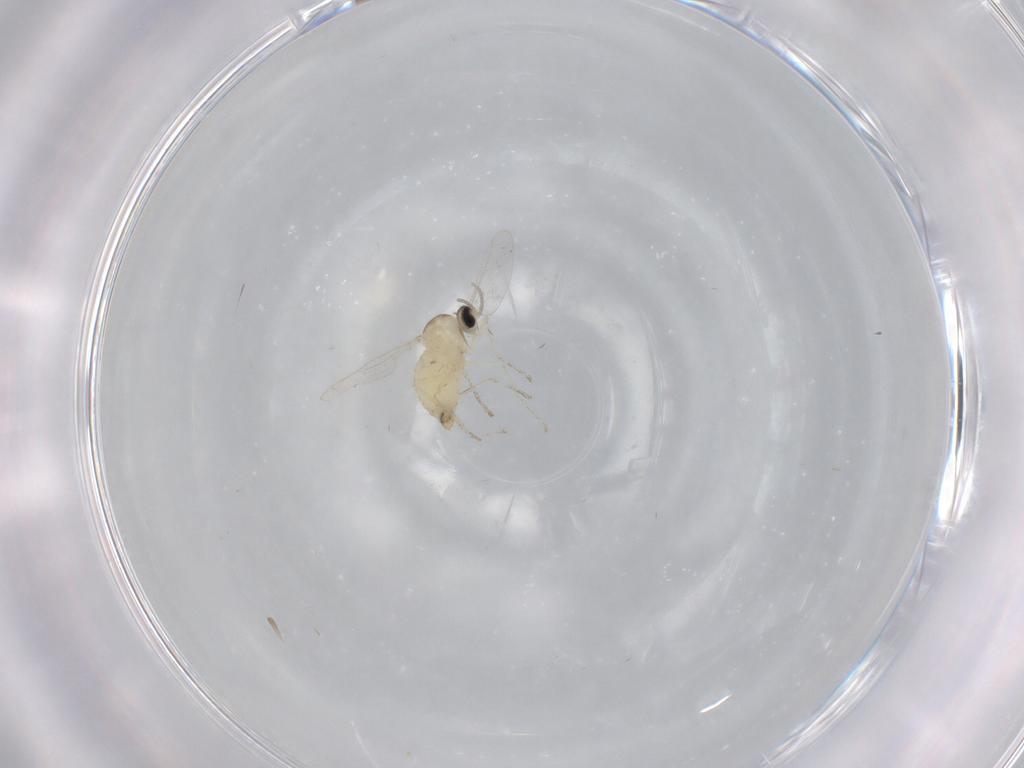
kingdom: Animalia
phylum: Arthropoda
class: Insecta
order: Diptera
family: Cecidomyiidae
